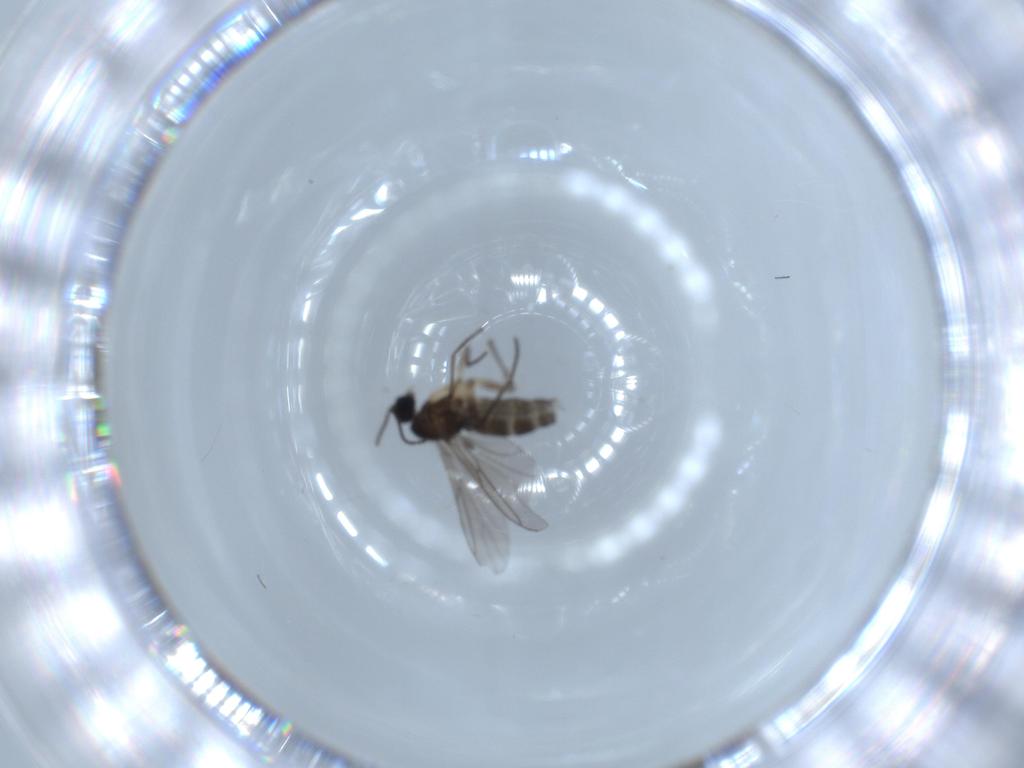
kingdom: Animalia
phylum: Arthropoda
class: Insecta
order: Diptera
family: Sciaridae
